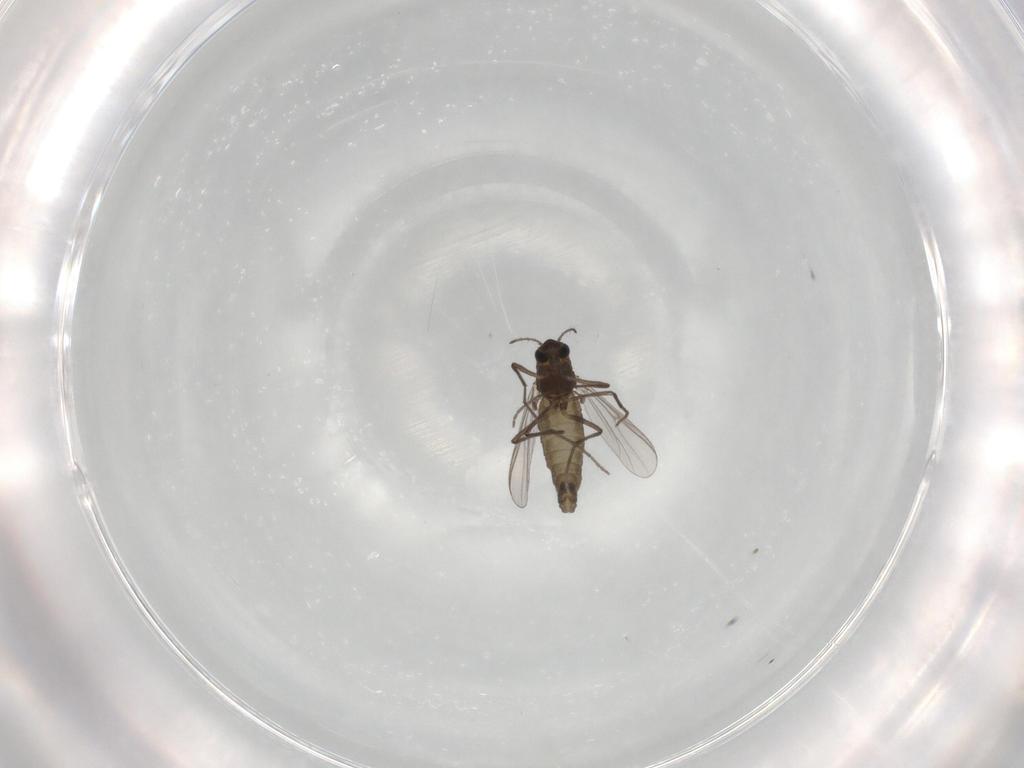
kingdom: Animalia
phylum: Arthropoda
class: Insecta
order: Diptera
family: Chironomidae
